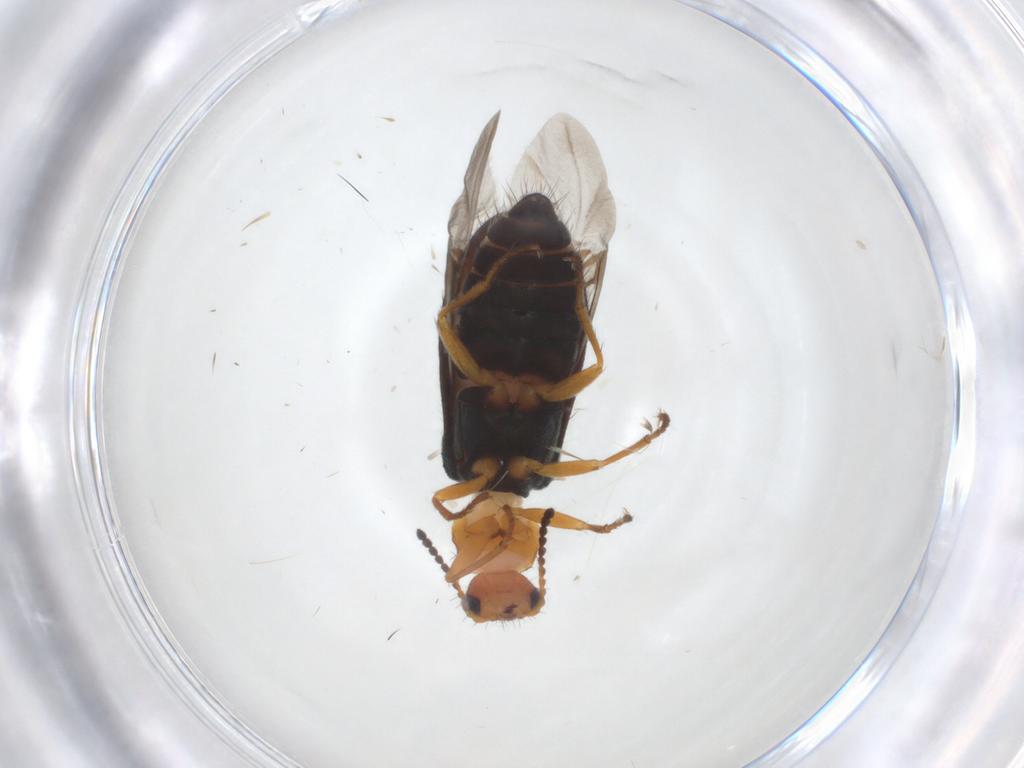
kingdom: Animalia
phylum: Arthropoda
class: Insecta
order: Coleoptera
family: Melyridae
